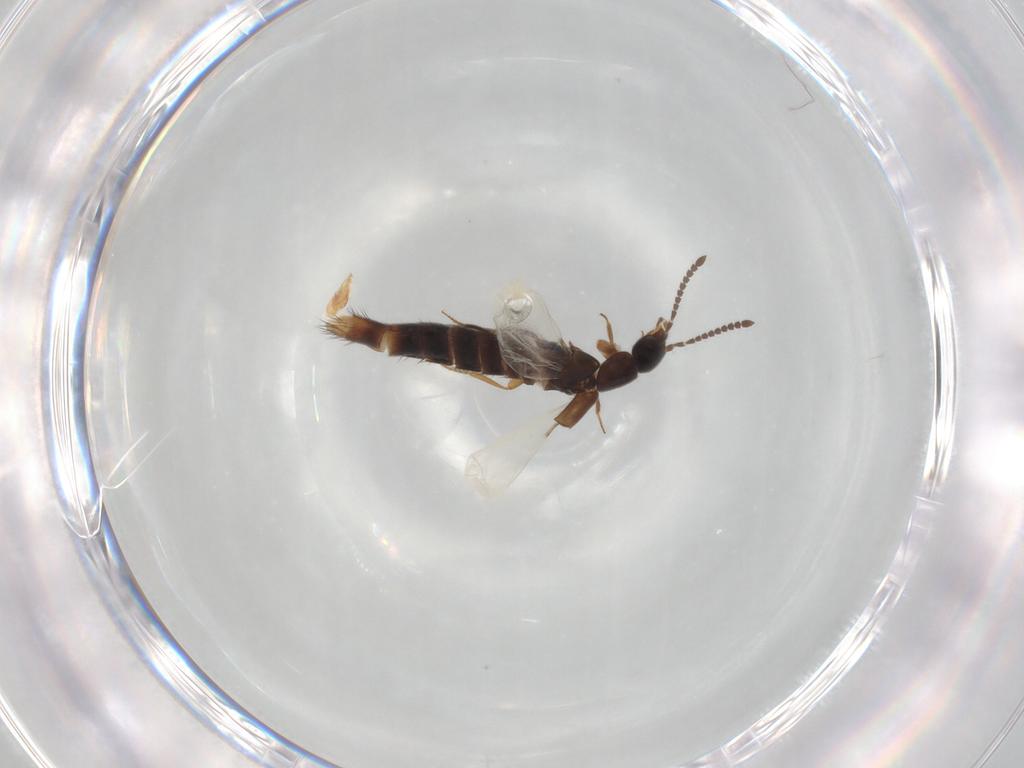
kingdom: Animalia
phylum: Arthropoda
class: Insecta
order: Coleoptera
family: Staphylinidae
